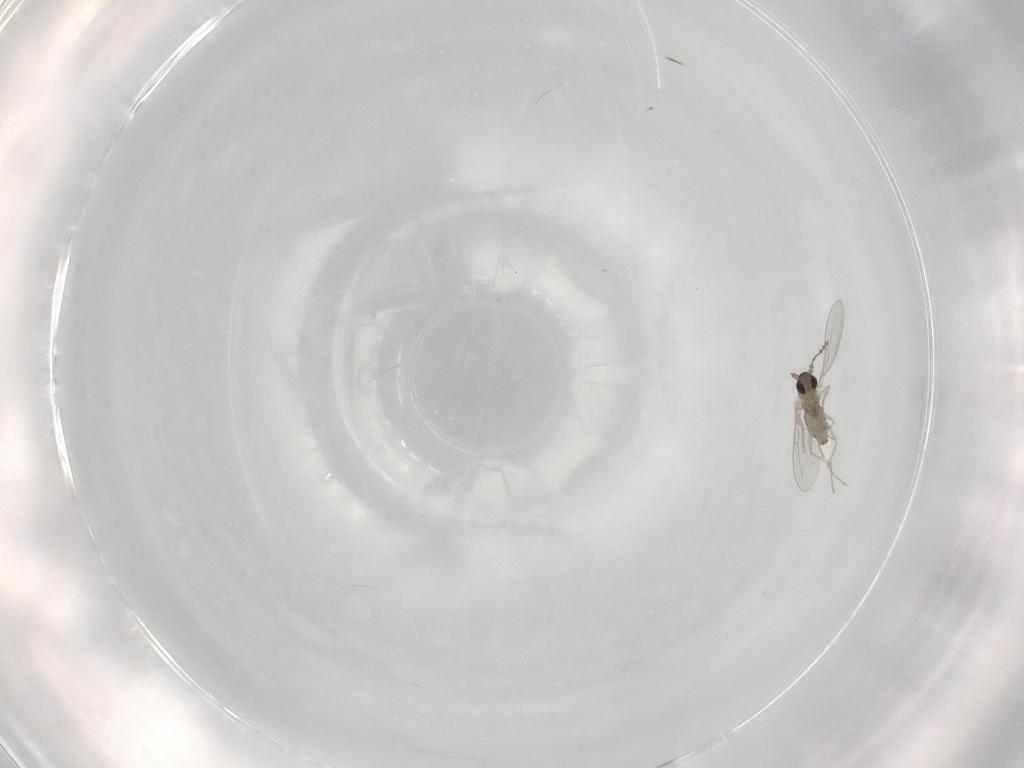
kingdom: Animalia
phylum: Arthropoda
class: Insecta
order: Diptera
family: Cecidomyiidae
